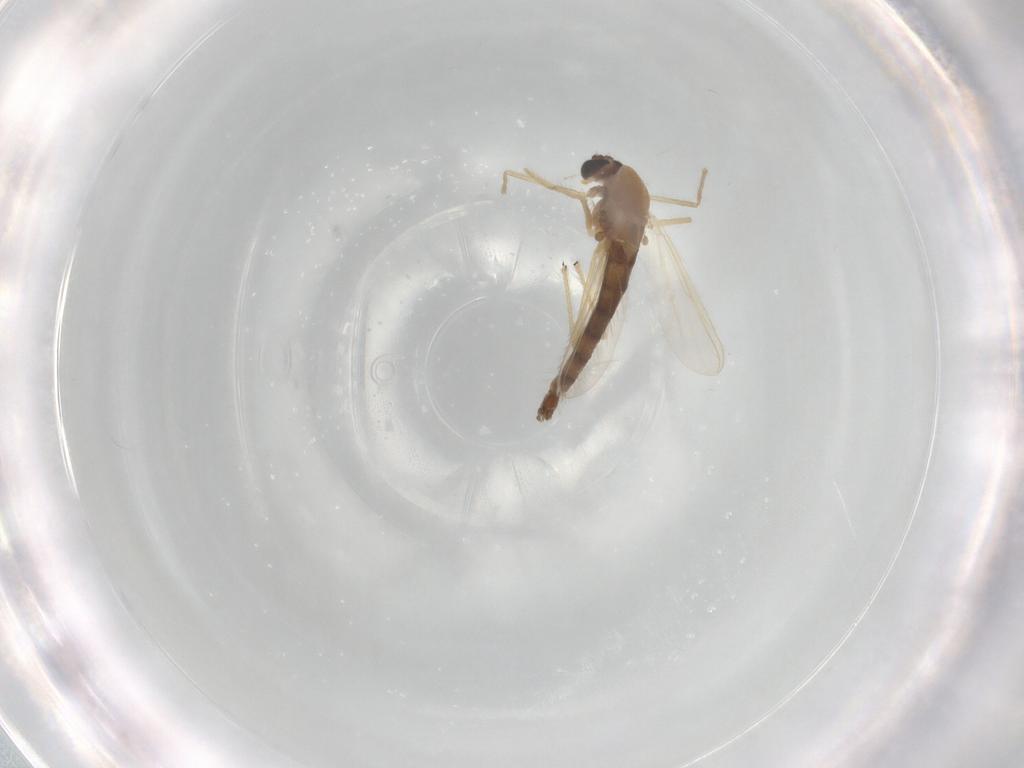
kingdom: Animalia
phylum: Arthropoda
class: Insecta
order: Diptera
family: Chironomidae
